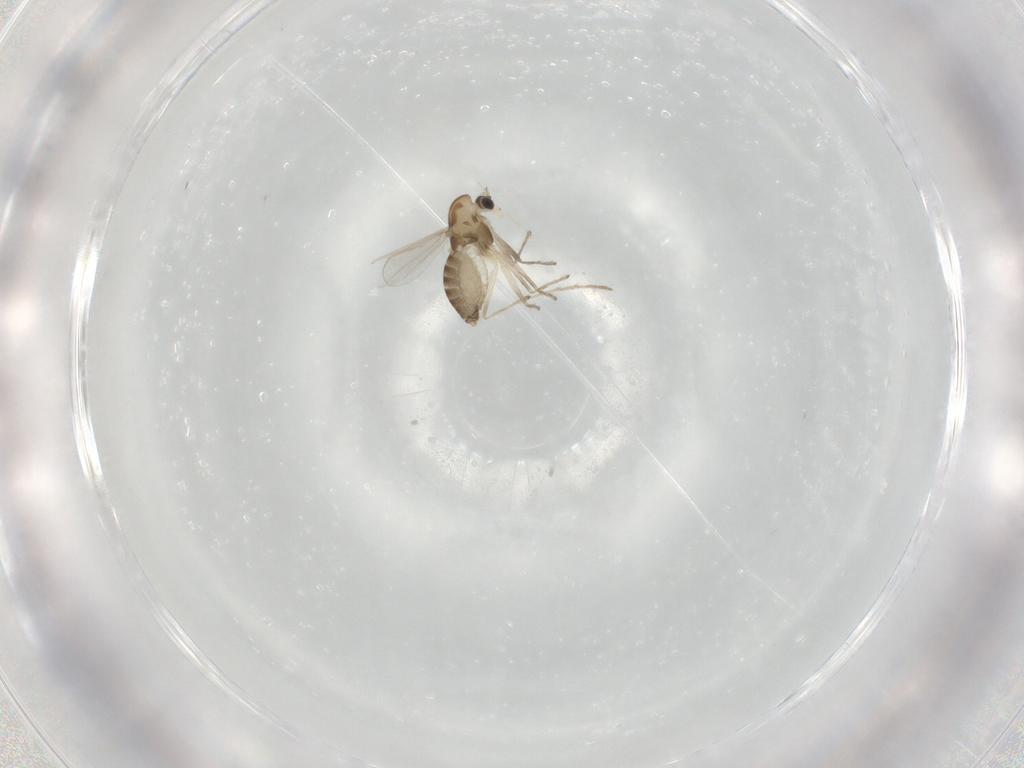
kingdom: Animalia
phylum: Arthropoda
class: Insecta
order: Diptera
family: Chironomidae
